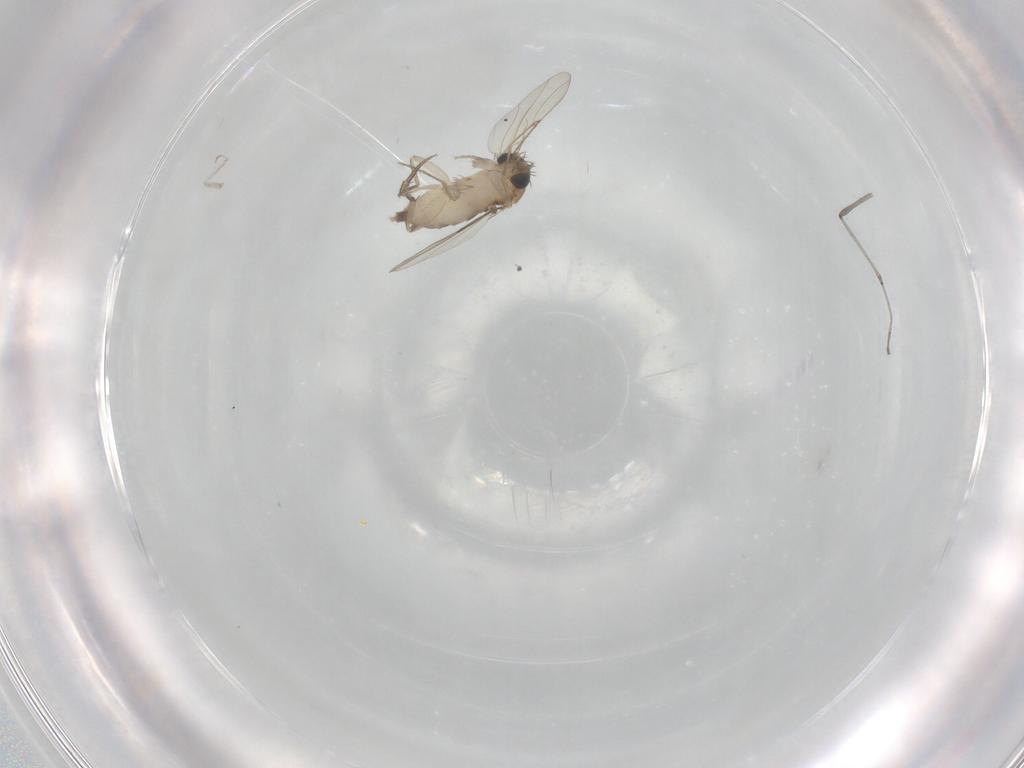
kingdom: Animalia
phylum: Arthropoda
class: Insecta
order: Diptera
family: Phoridae
